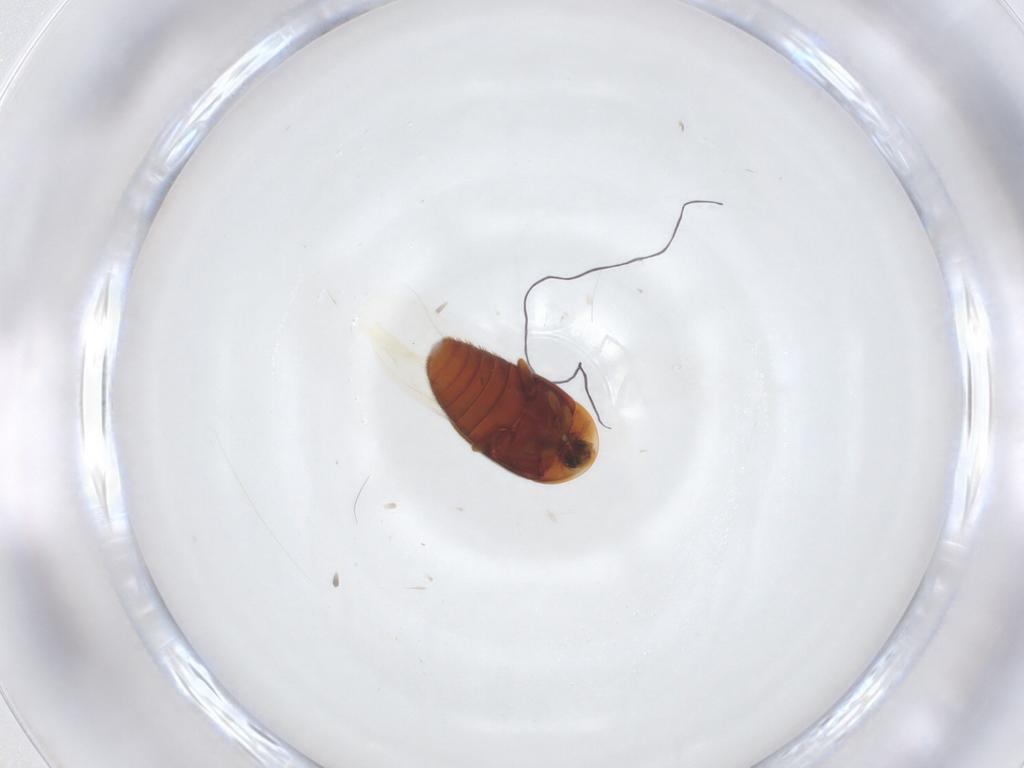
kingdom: Animalia
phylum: Arthropoda
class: Insecta
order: Coleoptera
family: Corylophidae
